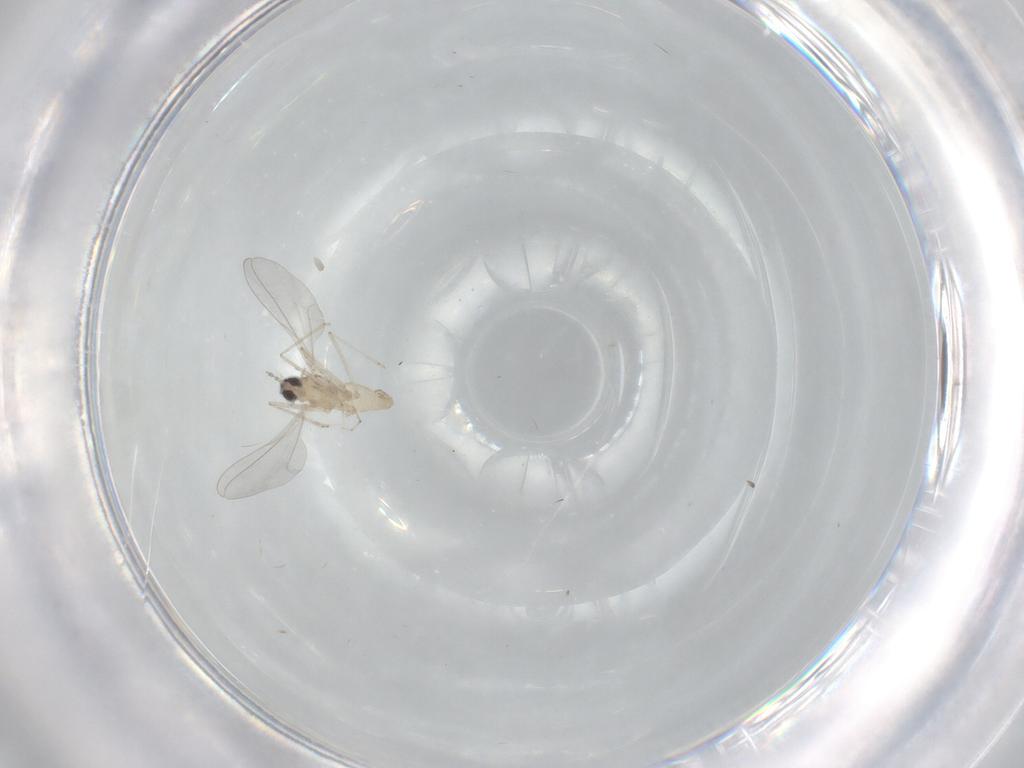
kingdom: Animalia
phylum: Arthropoda
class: Insecta
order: Diptera
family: Cecidomyiidae
